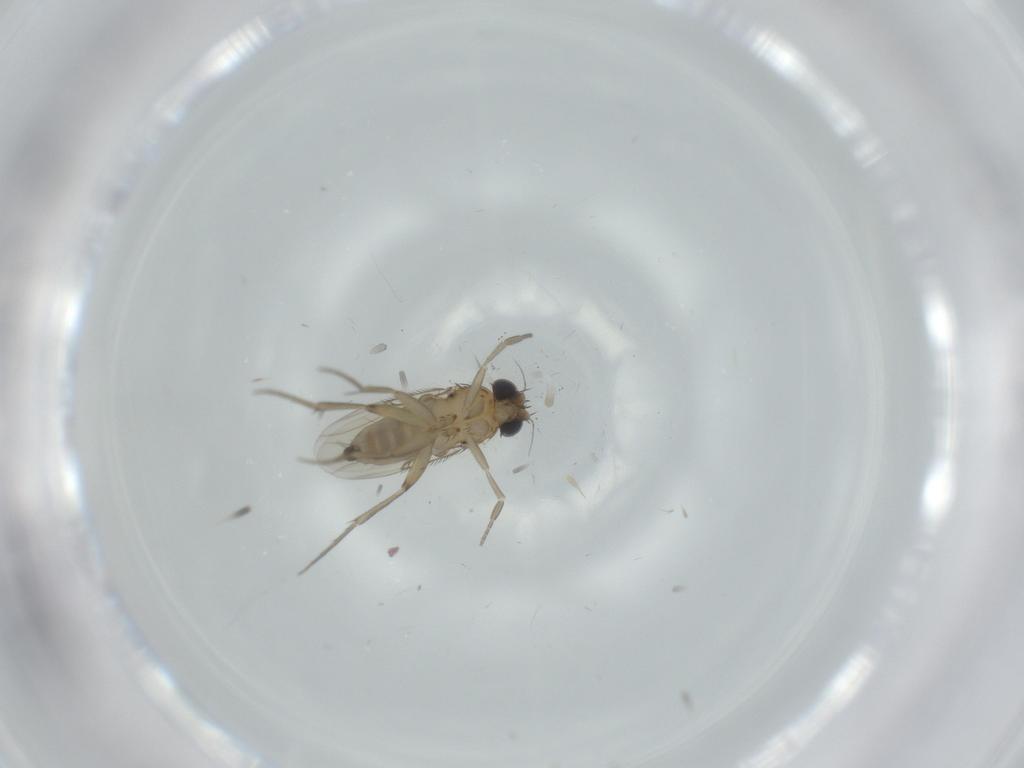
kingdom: Animalia
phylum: Arthropoda
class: Insecta
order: Diptera
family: Phoridae
